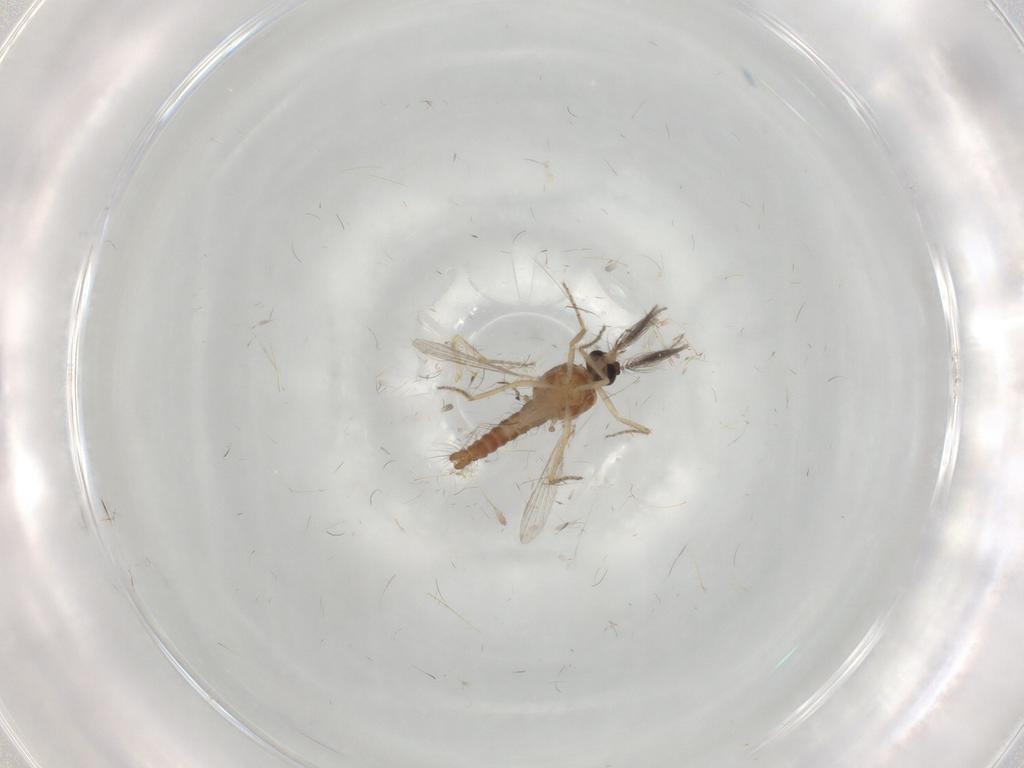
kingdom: Animalia
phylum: Arthropoda
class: Insecta
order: Diptera
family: Ceratopogonidae
